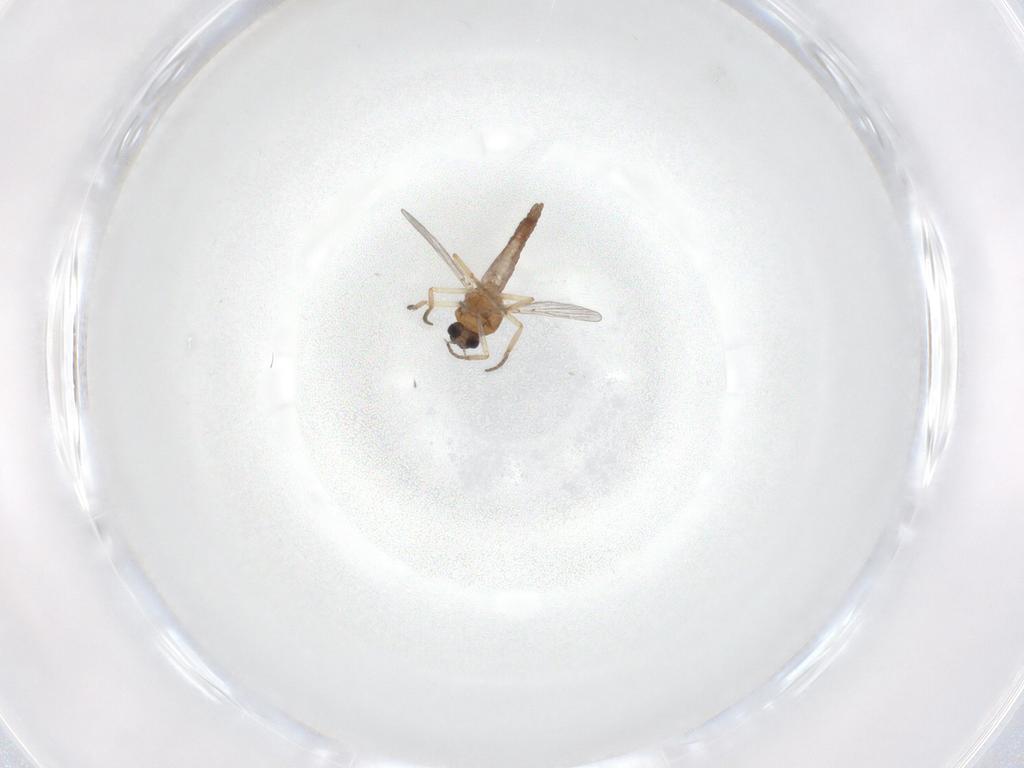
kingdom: Animalia
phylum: Arthropoda
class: Insecta
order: Diptera
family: Ceratopogonidae
